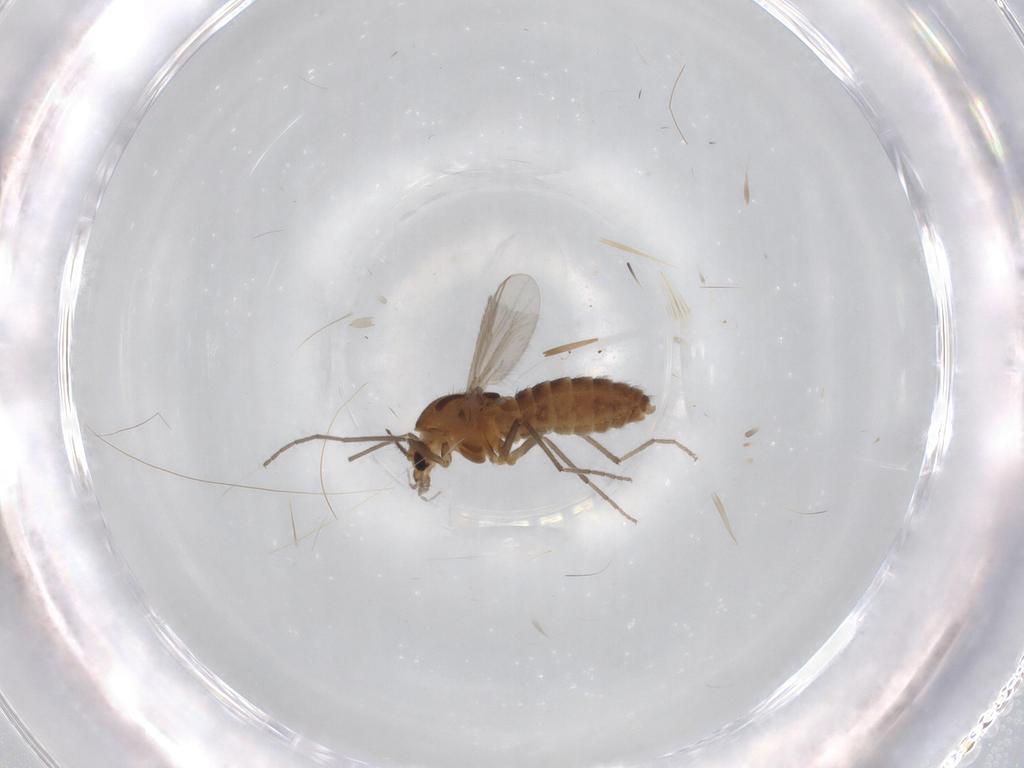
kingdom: Animalia
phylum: Arthropoda
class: Insecta
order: Diptera
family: Chironomidae
